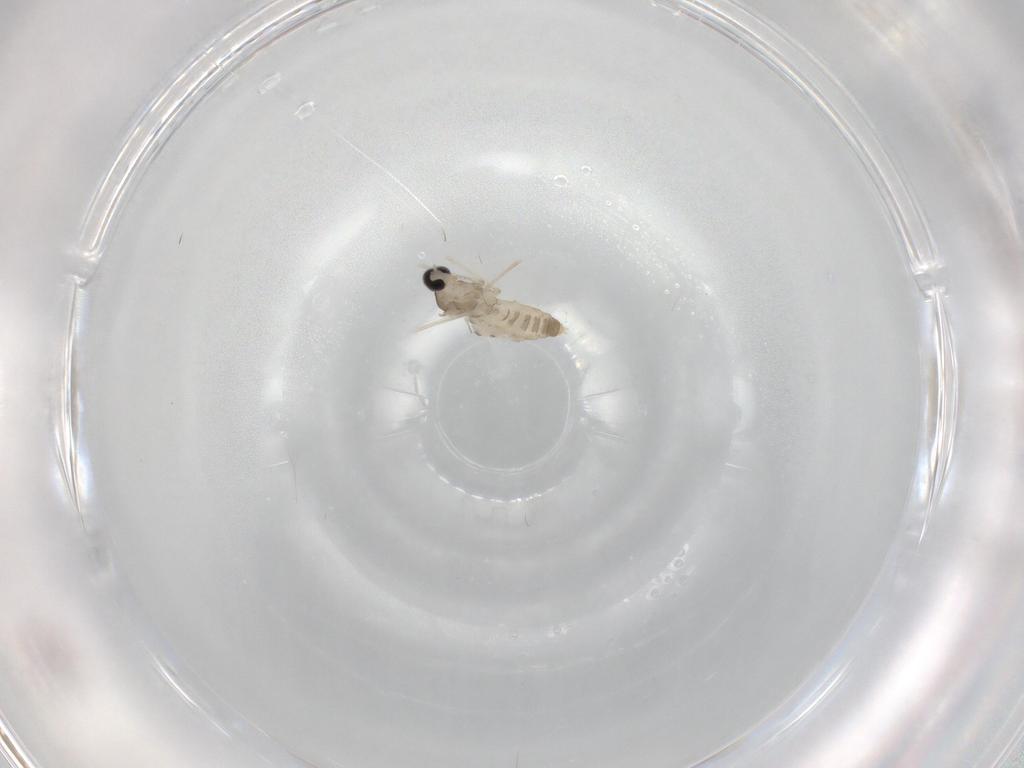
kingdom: Animalia
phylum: Arthropoda
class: Insecta
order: Diptera
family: Cecidomyiidae
